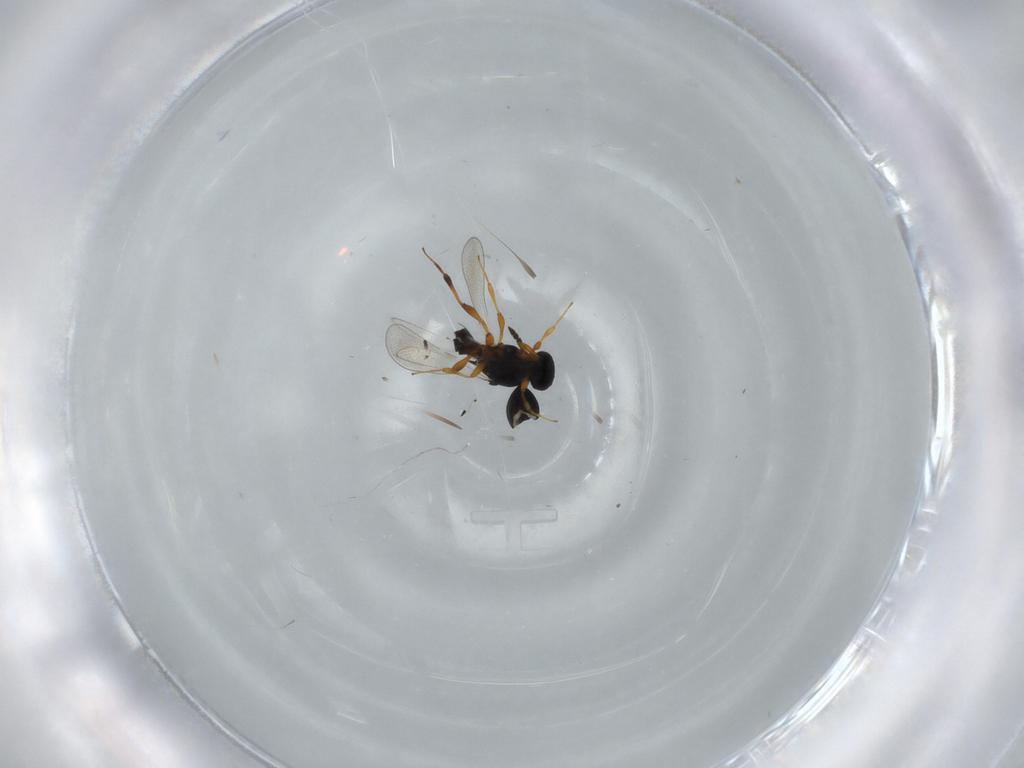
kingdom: Animalia
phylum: Arthropoda
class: Insecta
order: Hymenoptera
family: Platygastridae
